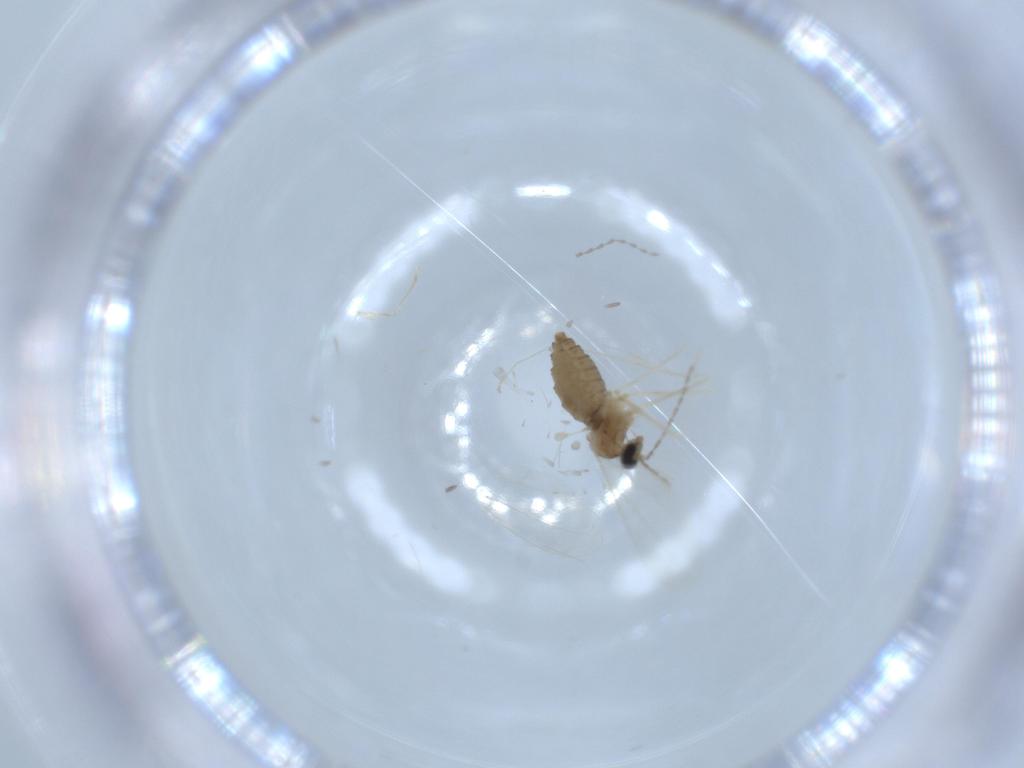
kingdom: Animalia
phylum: Arthropoda
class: Insecta
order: Diptera
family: Cecidomyiidae
